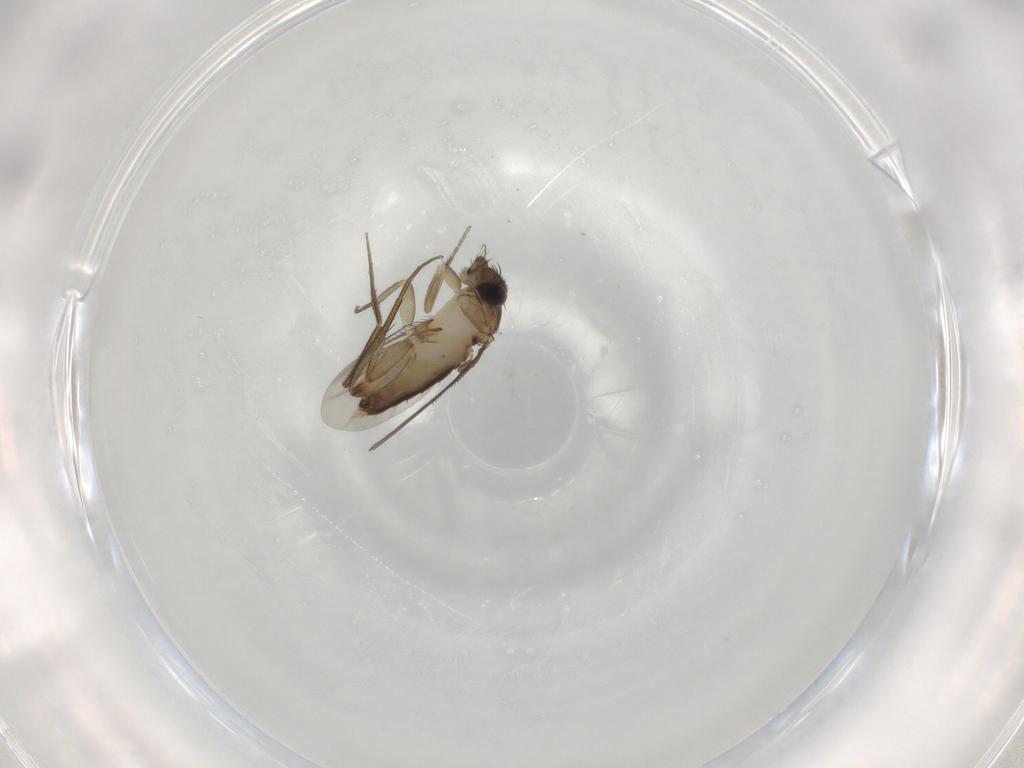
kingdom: Animalia
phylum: Arthropoda
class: Insecta
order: Diptera
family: Phoridae
